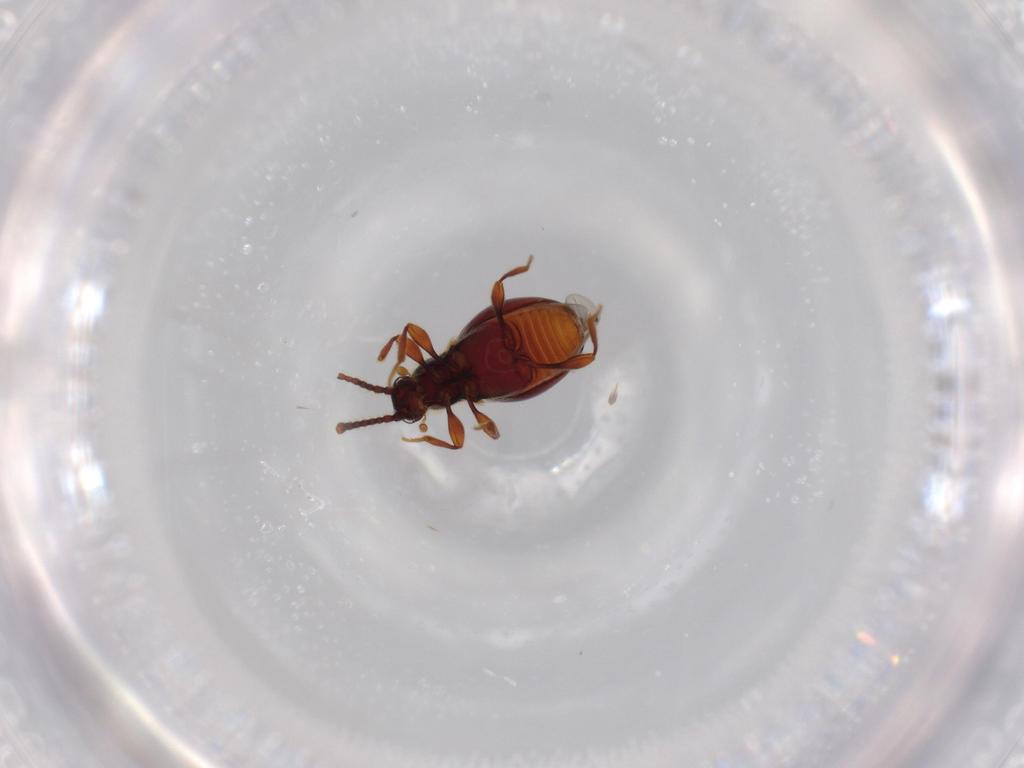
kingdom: Animalia
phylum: Arthropoda
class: Insecta
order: Coleoptera
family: Staphylinidae
